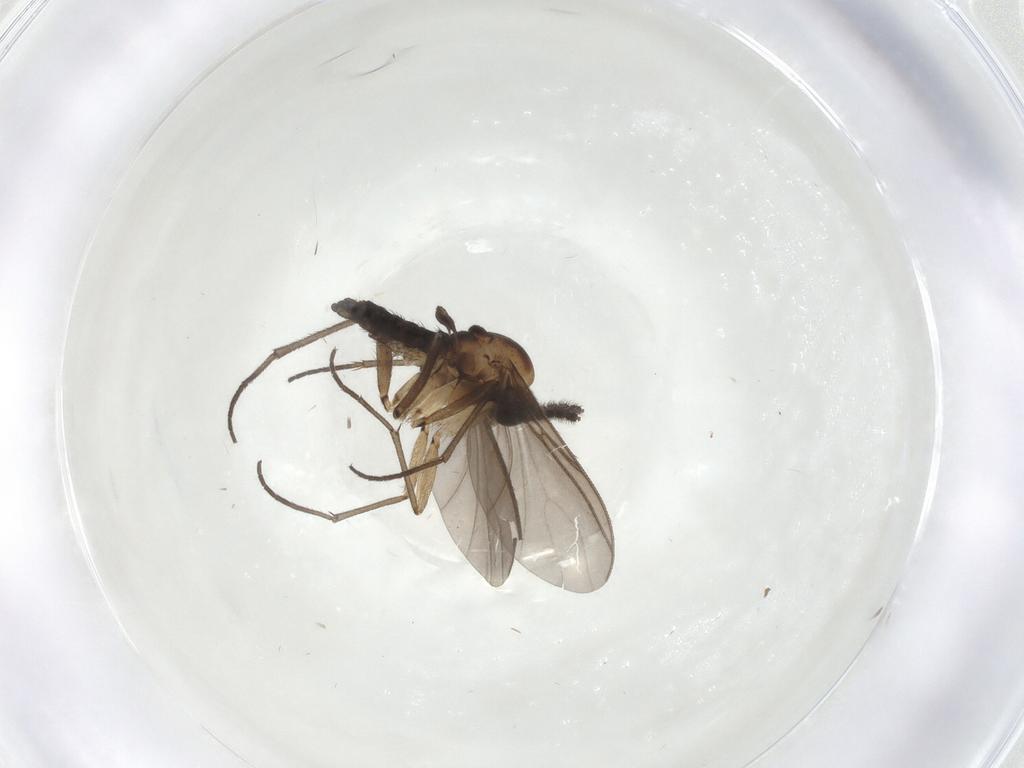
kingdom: Animalia
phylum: Arthropoda
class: Insecta
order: Diptera
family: Sciaridae
